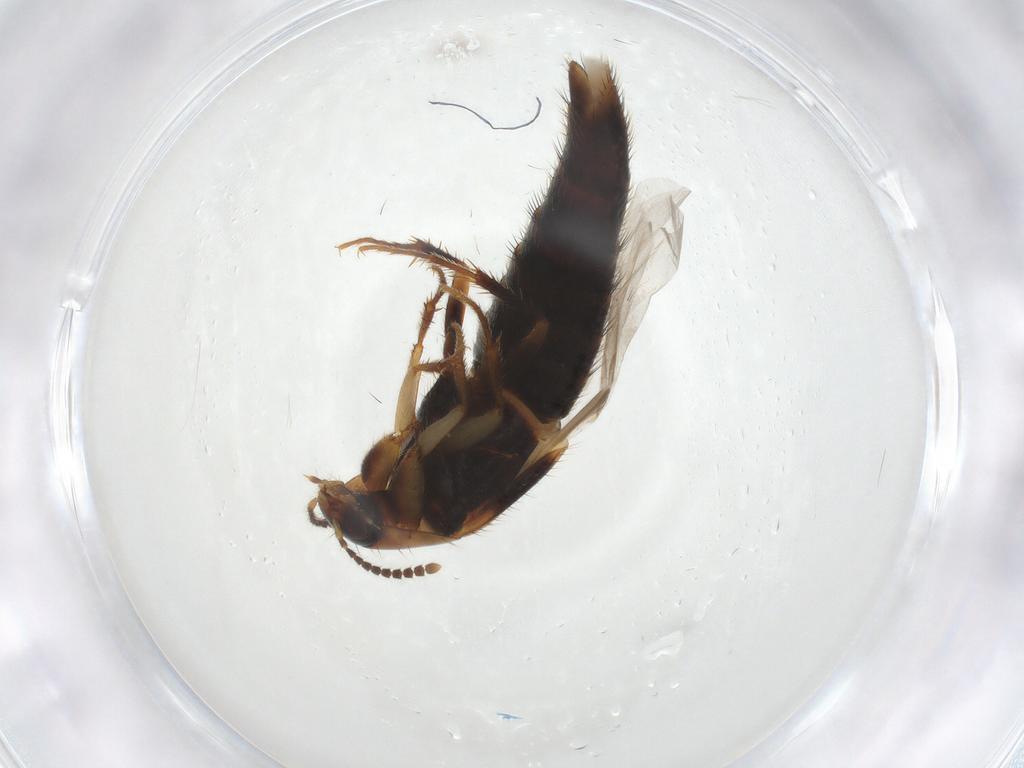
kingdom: Animalia
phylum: Arthropoda
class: Insecta
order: Coleoptera
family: Staphylinidae
